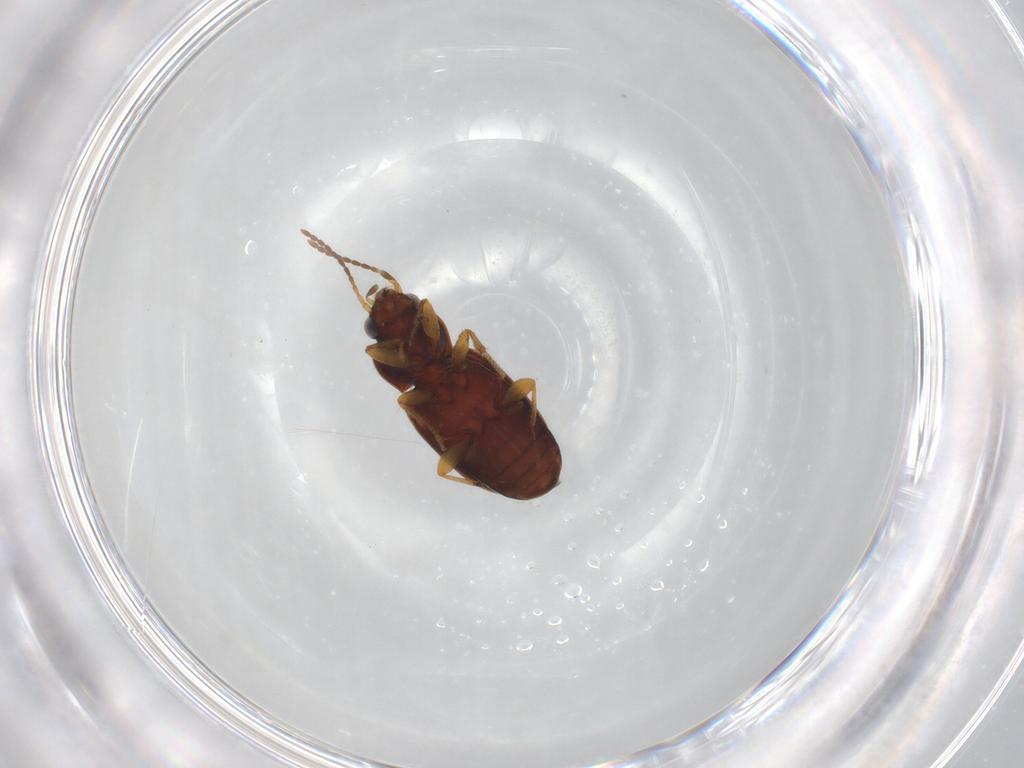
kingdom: Animalia
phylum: Arthropoda
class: Insecta
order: Coleoptera
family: Carabidae
